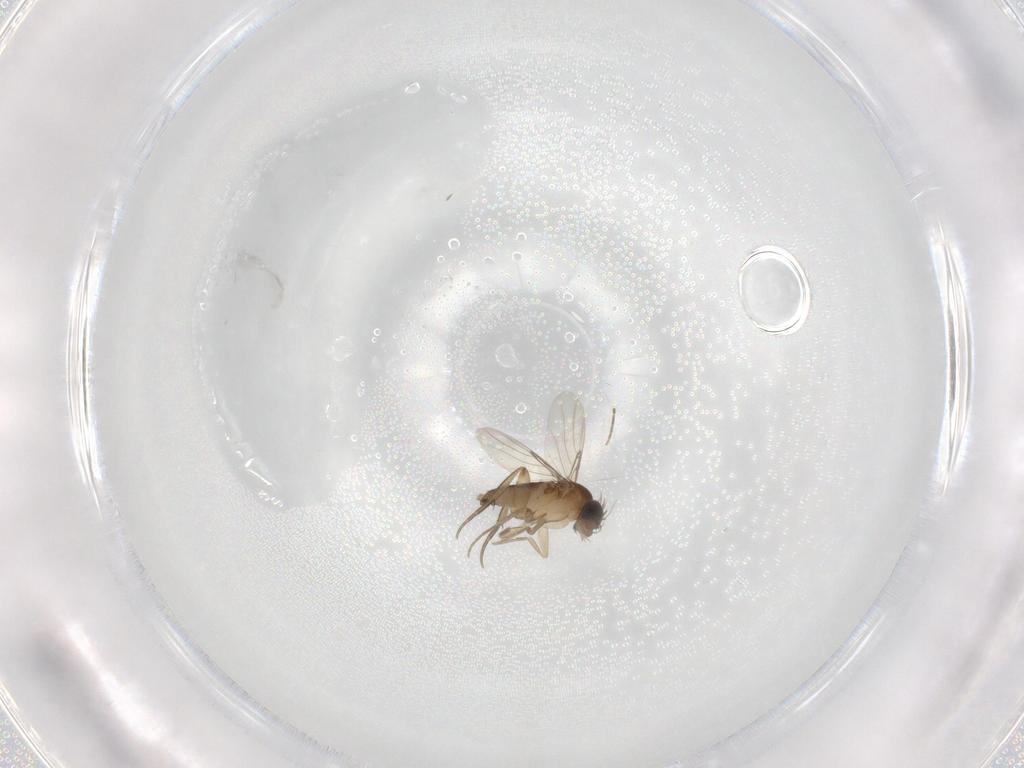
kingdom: Animalia
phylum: Arthropoda
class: Insecta
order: Diptera
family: Phoridae
